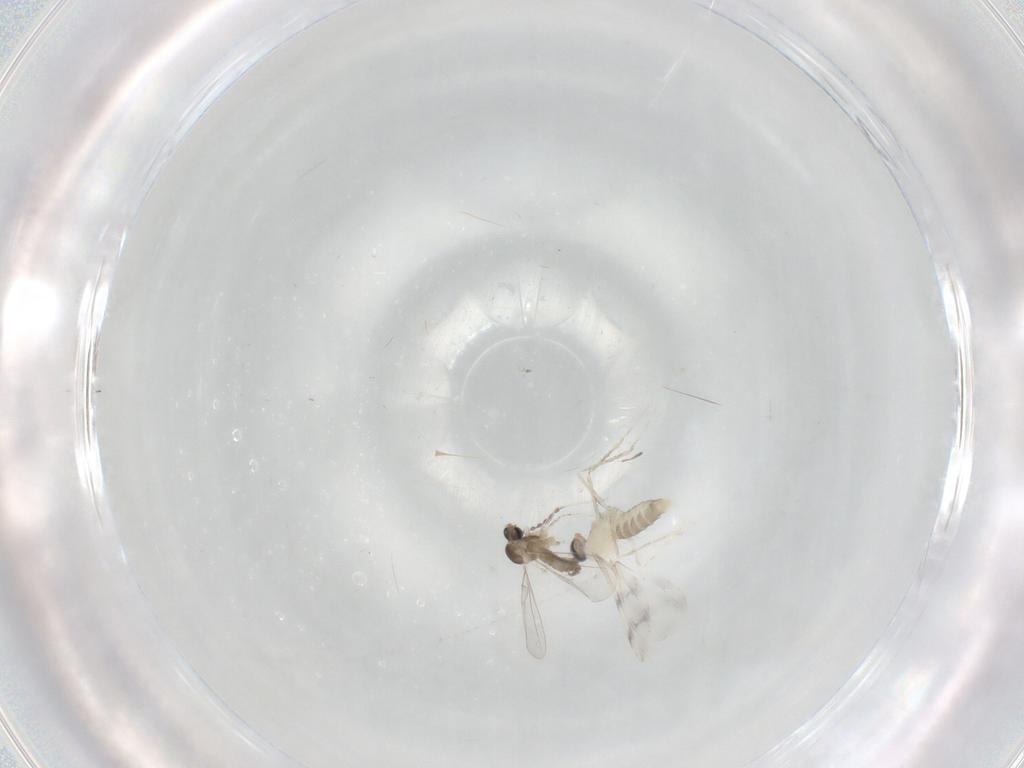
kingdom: Animalia
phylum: Arthropoda
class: Insecta
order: Diptera
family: Cecidomyiidae
